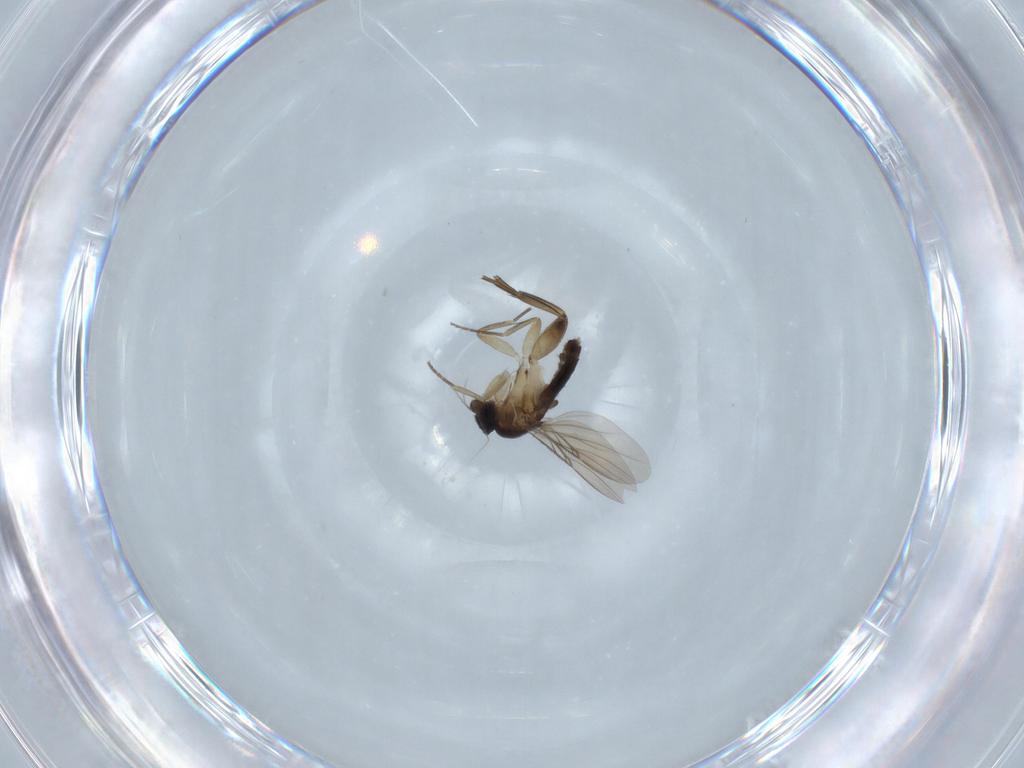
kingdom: Animalia
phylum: Arthropoda
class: Insecta
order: Diptera
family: Phoridae
